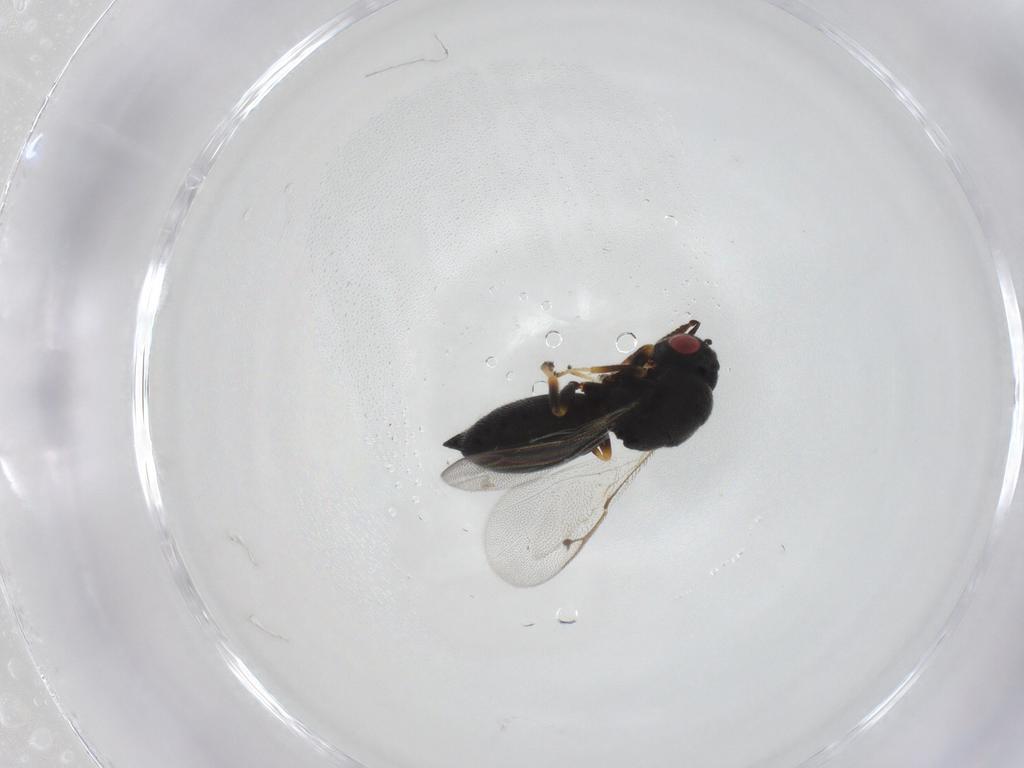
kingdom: Animalia
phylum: Arthropoda
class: Insecta
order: Hymenoptera
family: Eurytomidae
